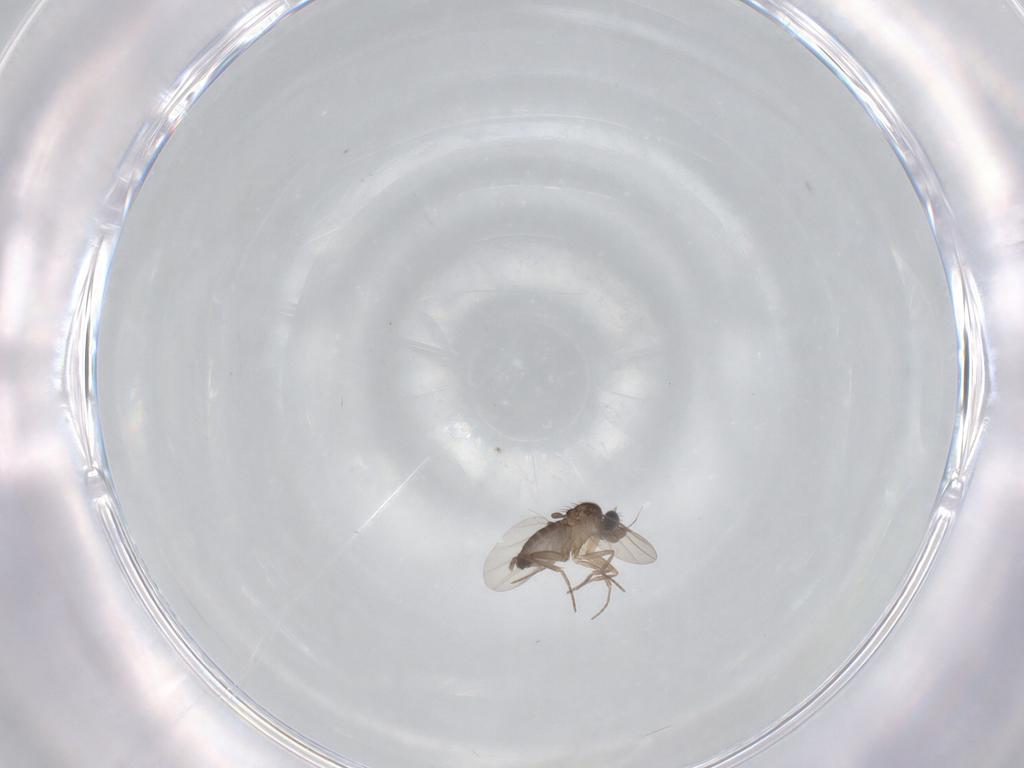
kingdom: Animalia
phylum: Arthropoda
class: Insecta
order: Diptera
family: Phoridae
